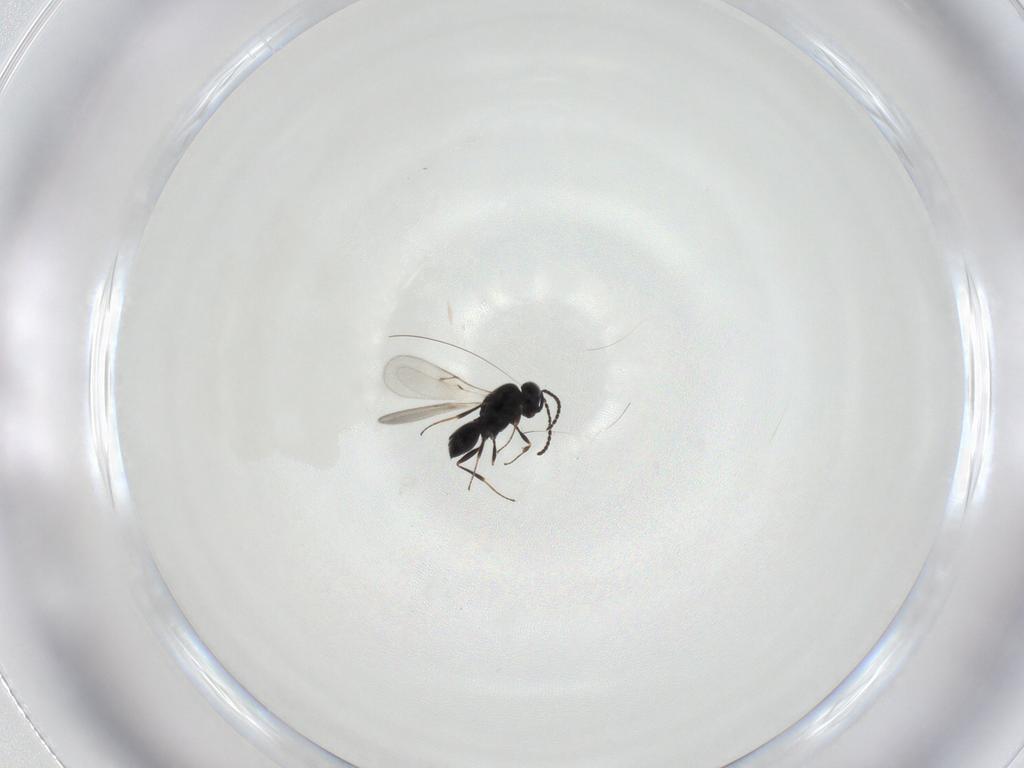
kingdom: Animalia
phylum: Arthropoda
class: Insecta
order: Hymenoptera
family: Scelionidae
